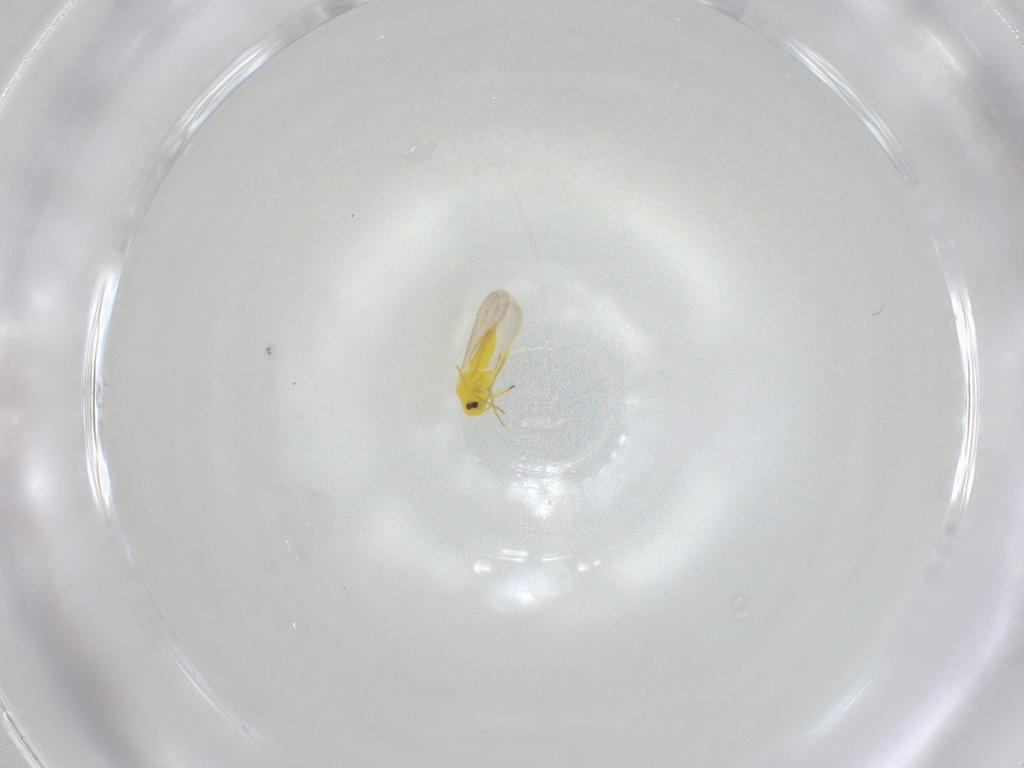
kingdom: Animalia
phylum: Arthropoda
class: Insecta
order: Hemiptera
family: Aleyrodidae
